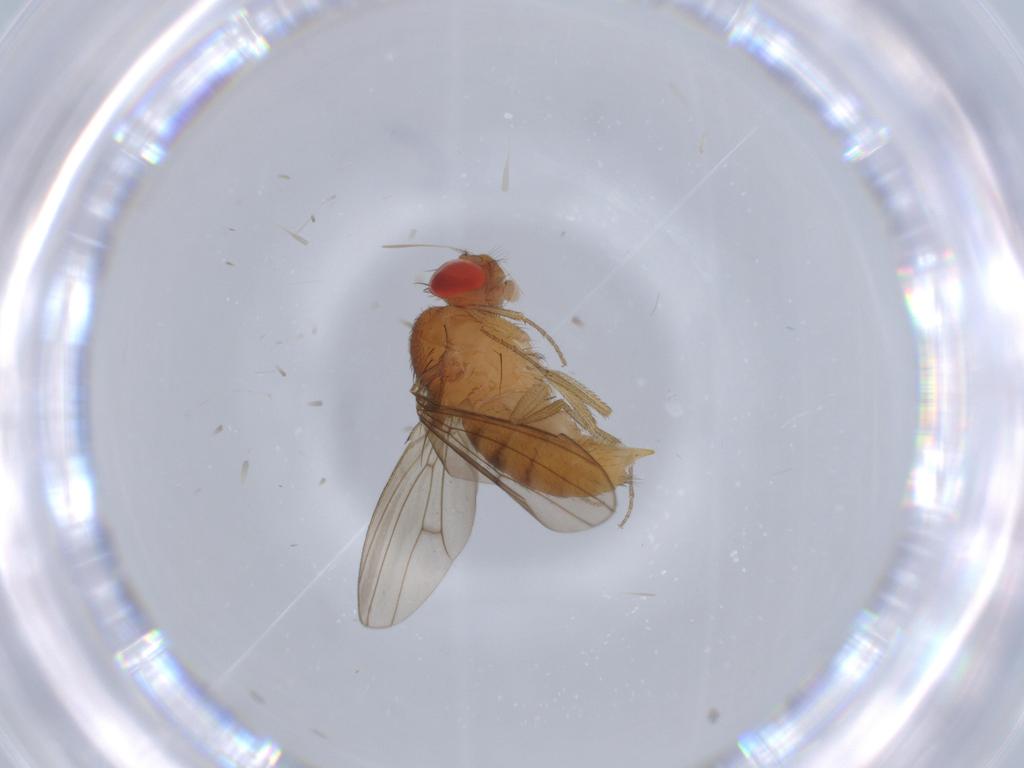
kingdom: Animalia
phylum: Arthropoda
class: Insecta
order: Diptera
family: Drosophilidae
